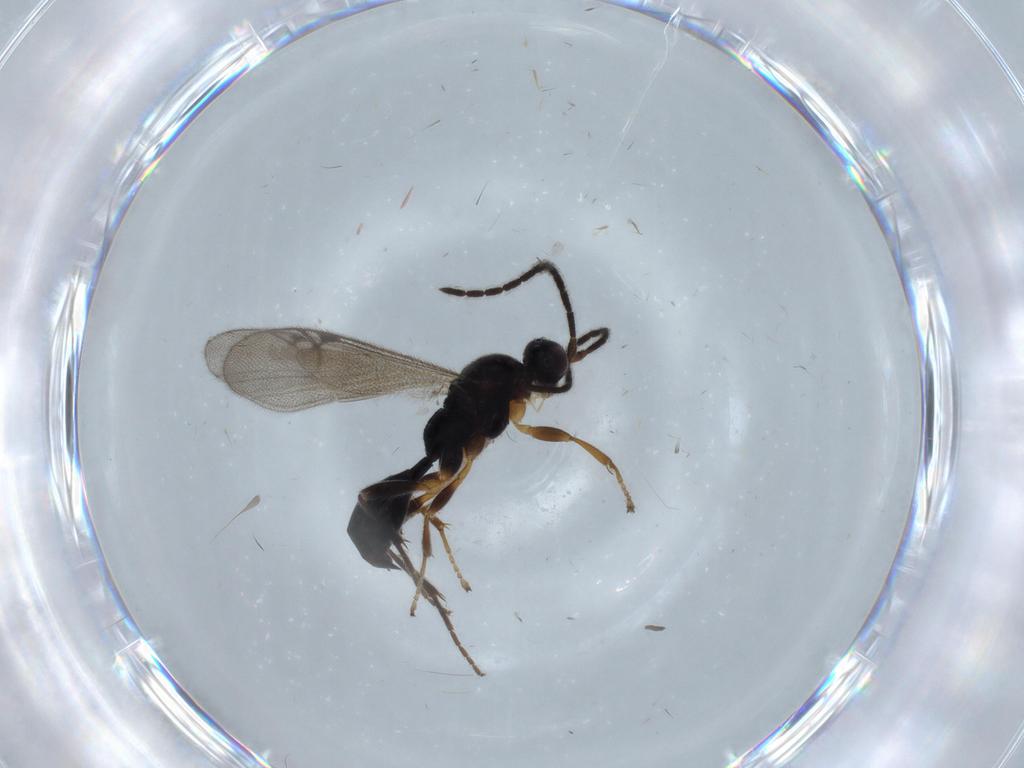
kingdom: Animalia
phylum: Arthropoda
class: Insecta
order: Hymenoptera
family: Proctotrupidae
